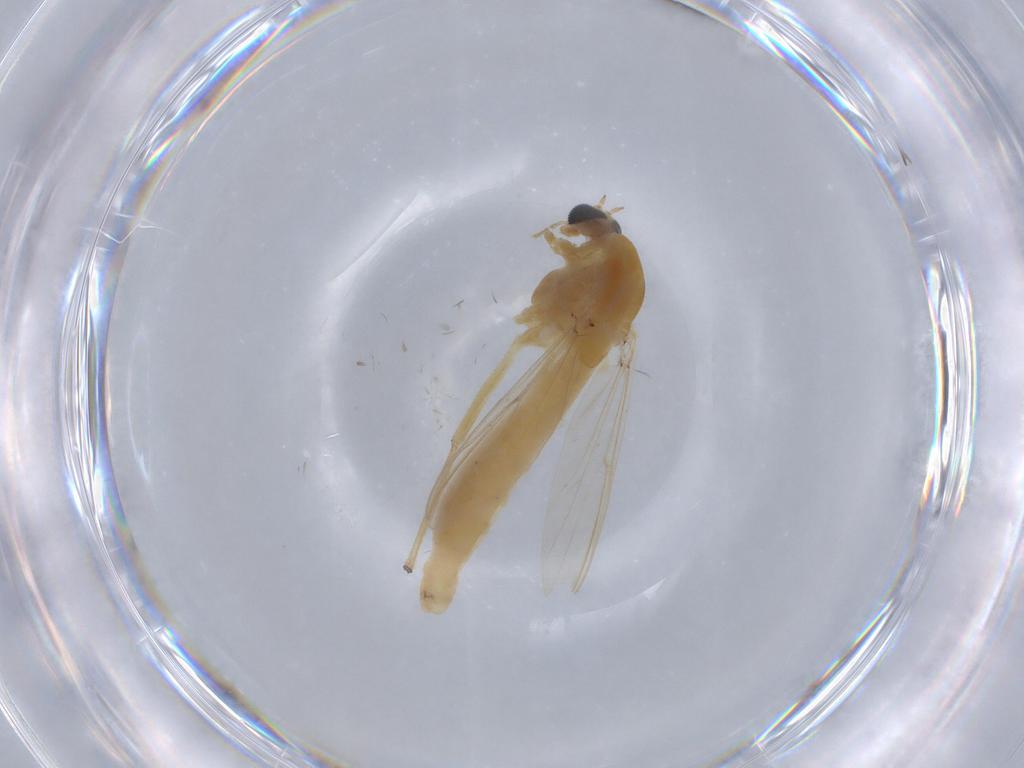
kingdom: Animalia
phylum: Arthropoda
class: Insecta
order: Diptera
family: Chironomidae
